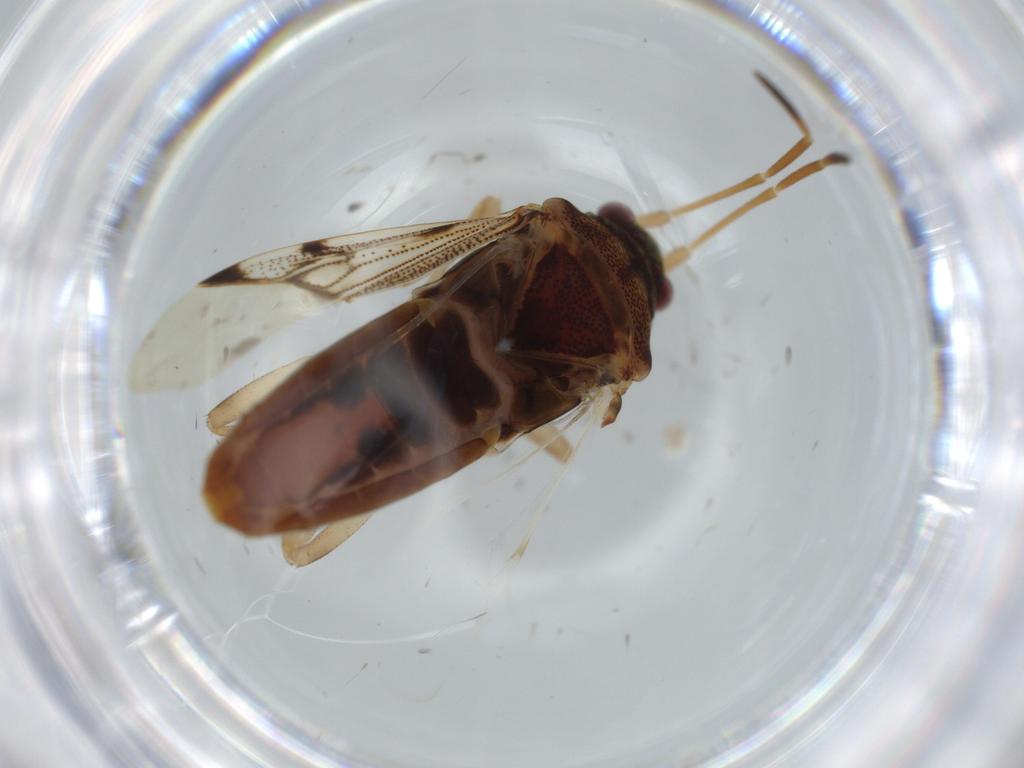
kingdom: Animalia
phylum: Arthropoda
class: Insecta
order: Hemiptera
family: Rhyparochromidae
